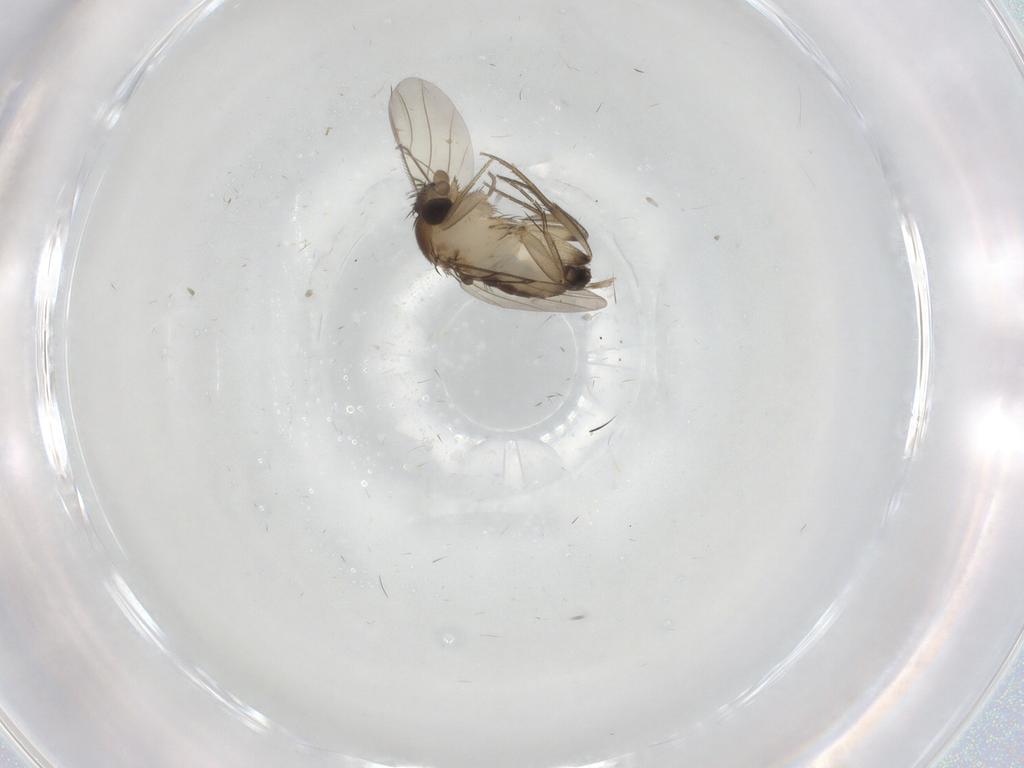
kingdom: Animalia
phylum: Arthropoda
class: Insecta
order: Diptera
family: Phoridae
